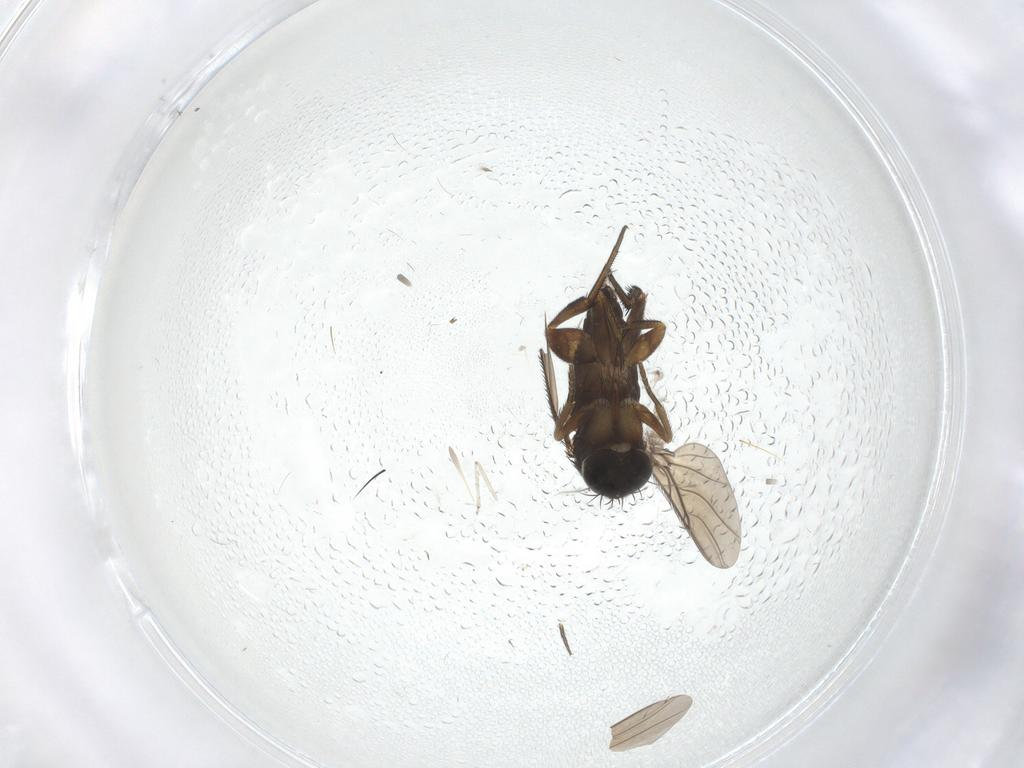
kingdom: Animalia
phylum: Arthropoda
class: Insecta
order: Diptera
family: Phoridae
